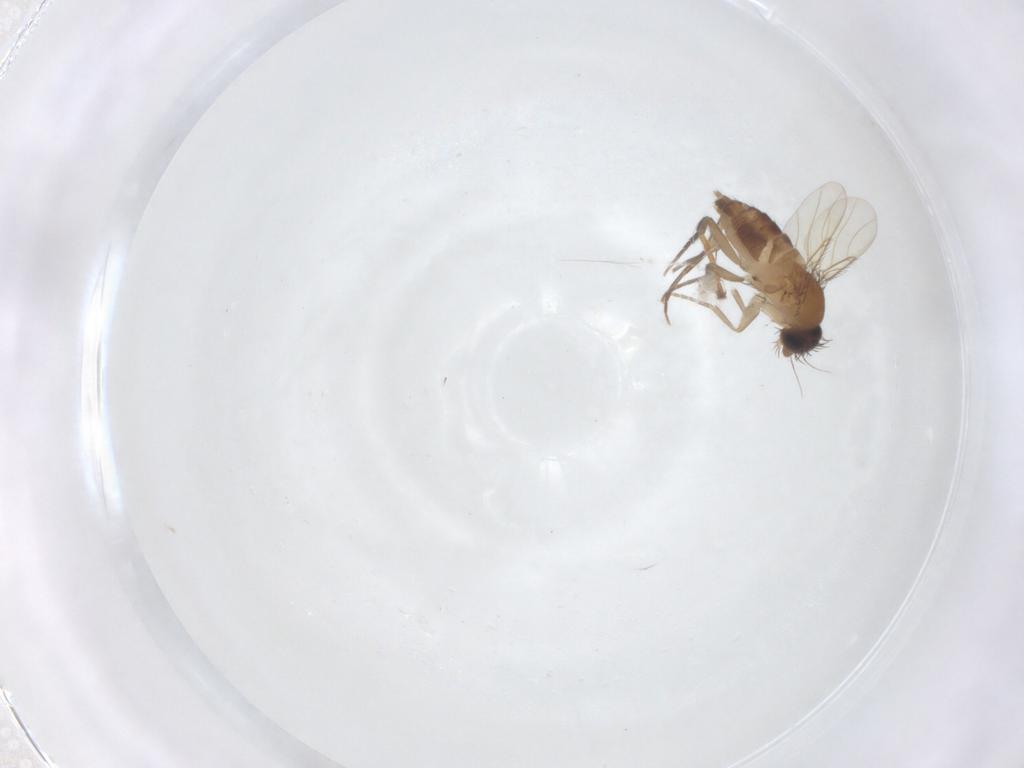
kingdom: Animalia
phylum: Arthropoda
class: Insecta
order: Diptera
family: Phoridae
